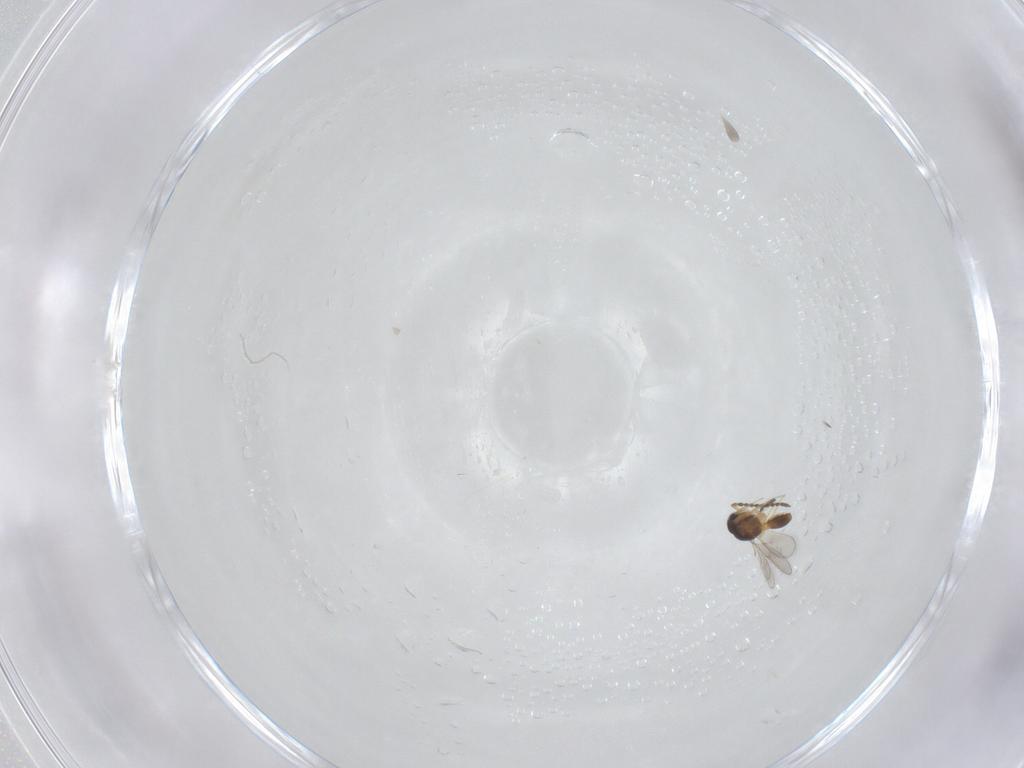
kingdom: Animalia
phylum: Arthropoda
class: Insecta
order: Hymenoptera
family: Scelionidae
